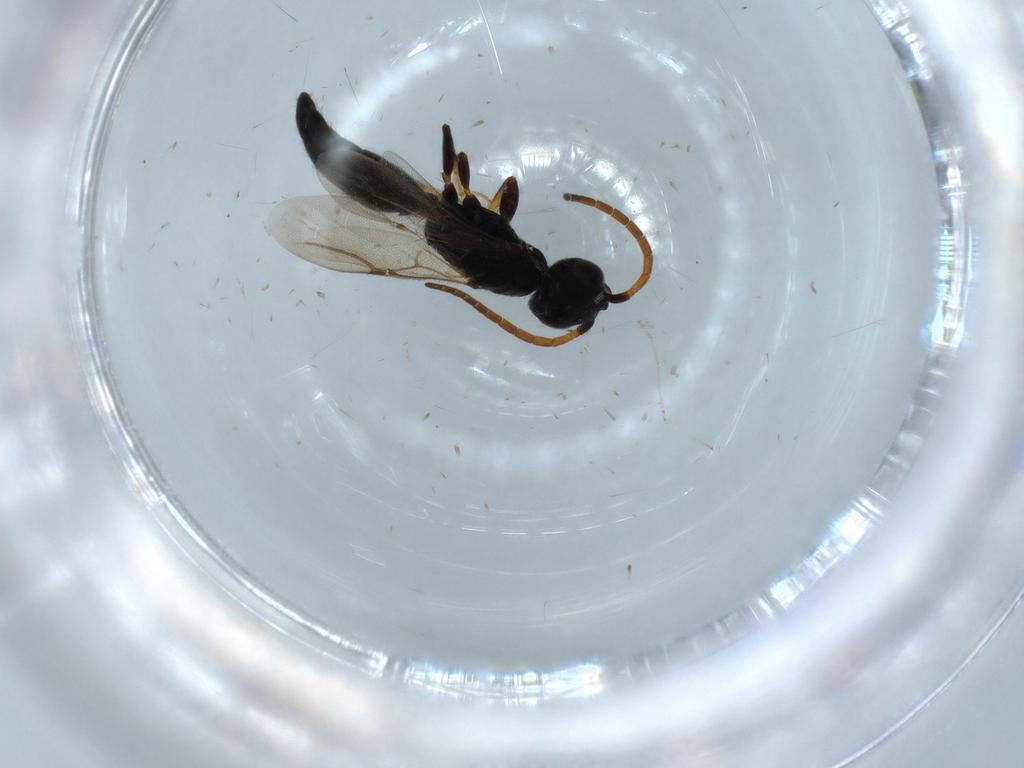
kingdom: Animalia
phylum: Arthropoda
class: Insecta
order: Hymenoptera
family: Bethylidae
